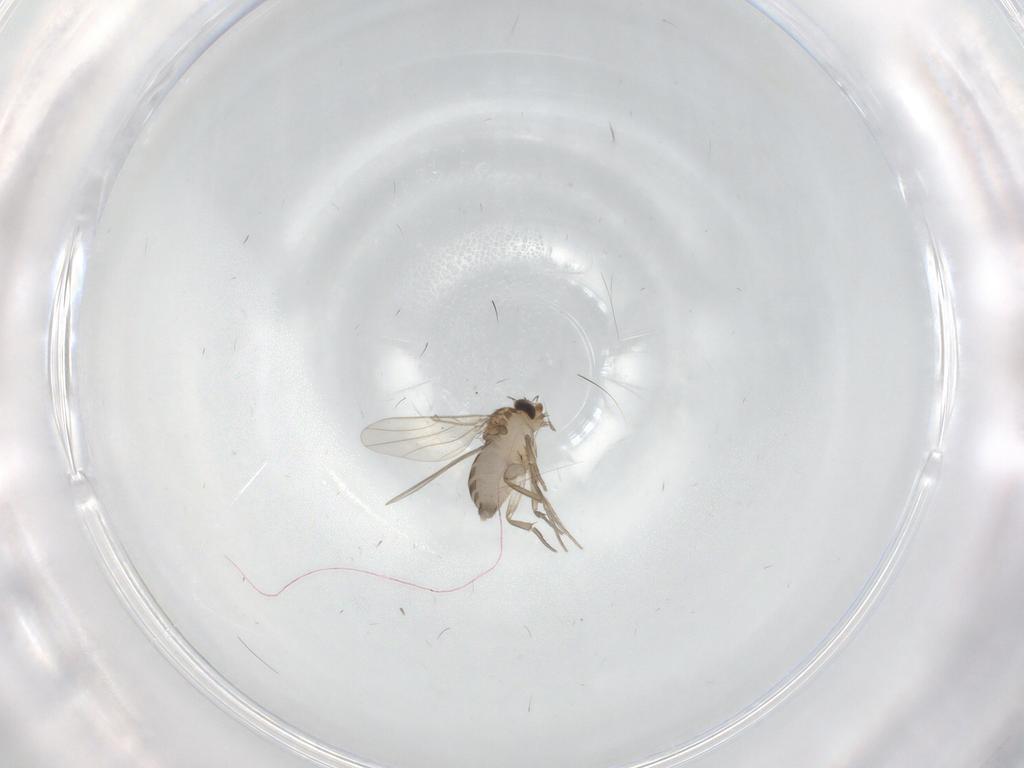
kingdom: Animalia
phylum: Arthropoda
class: Insecta
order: Diptera
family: Phoridae
